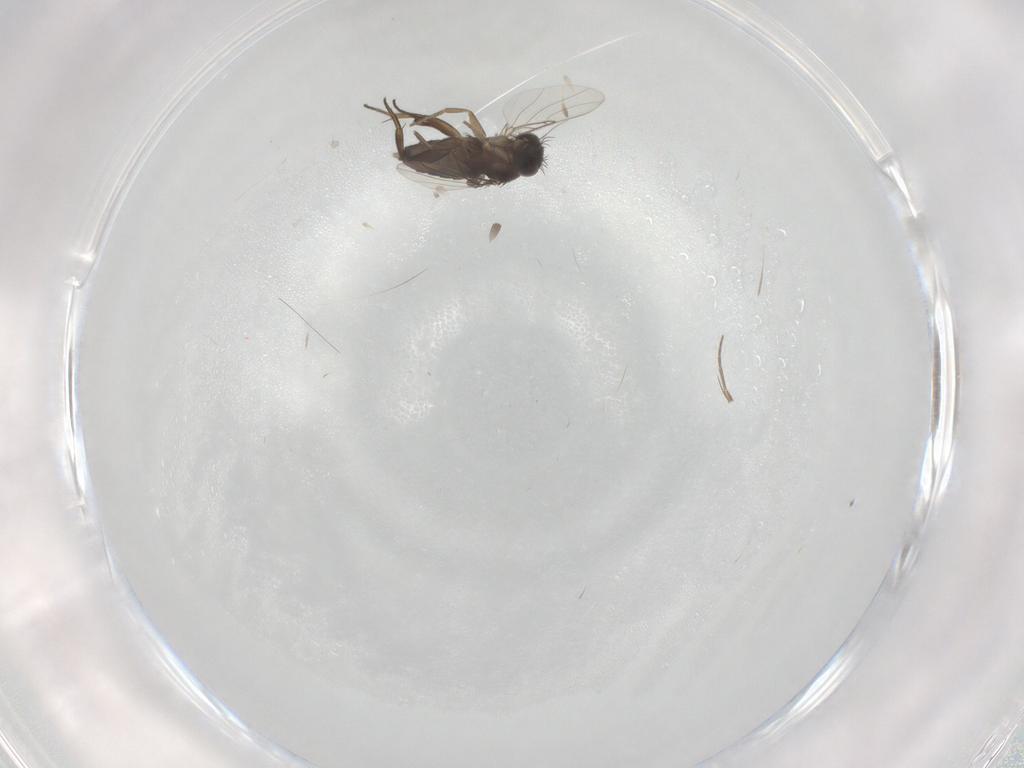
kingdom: Animalia
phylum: Arthropoda
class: Insecta
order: Diptera
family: Phoridae
